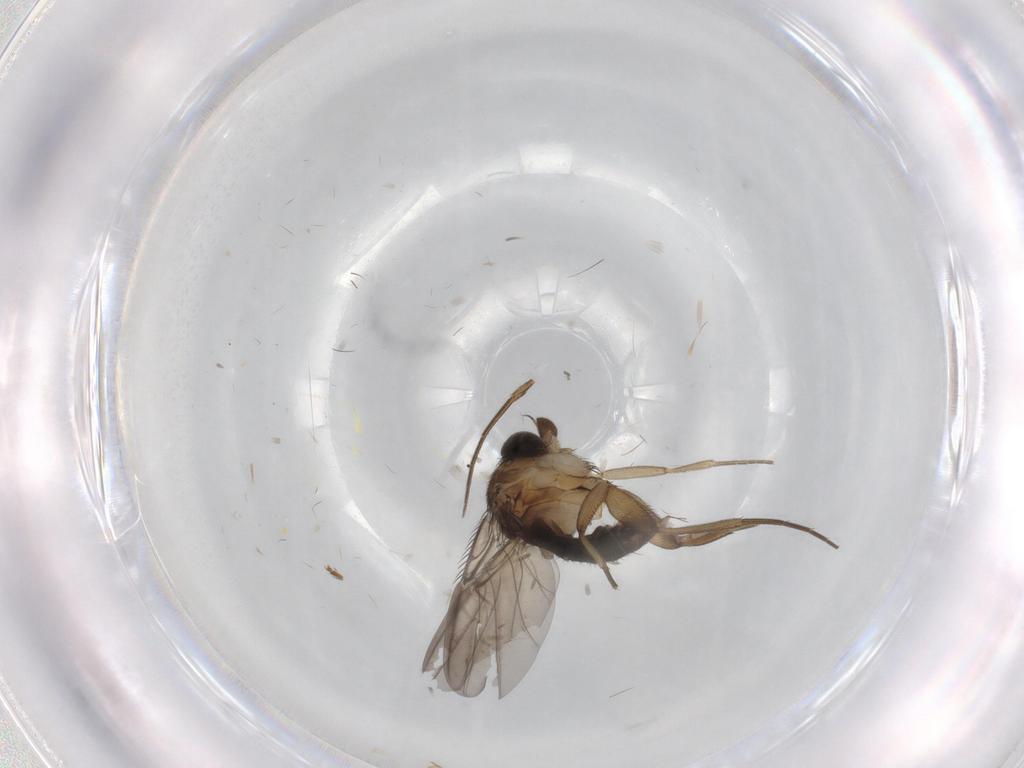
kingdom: Animalia
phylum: Arthropoda
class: Insecta
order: Diptera
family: Phoridae
